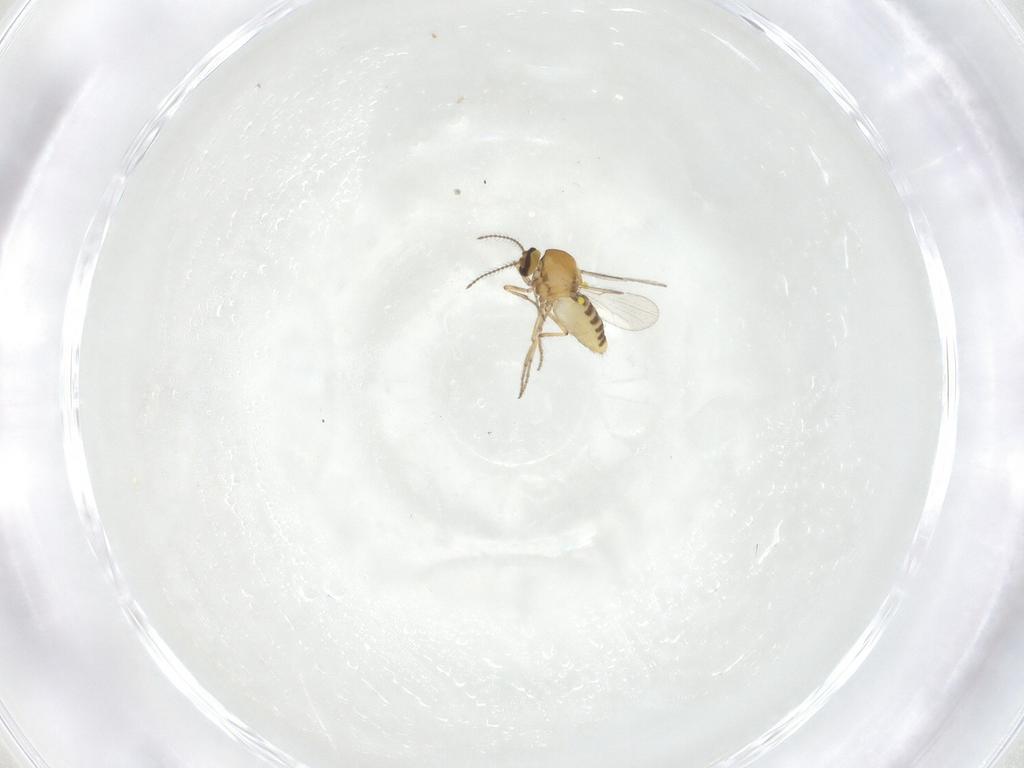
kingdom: Animalia
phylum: Arthropoda
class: Insecta
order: Diptera
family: Ceratopogonidae
